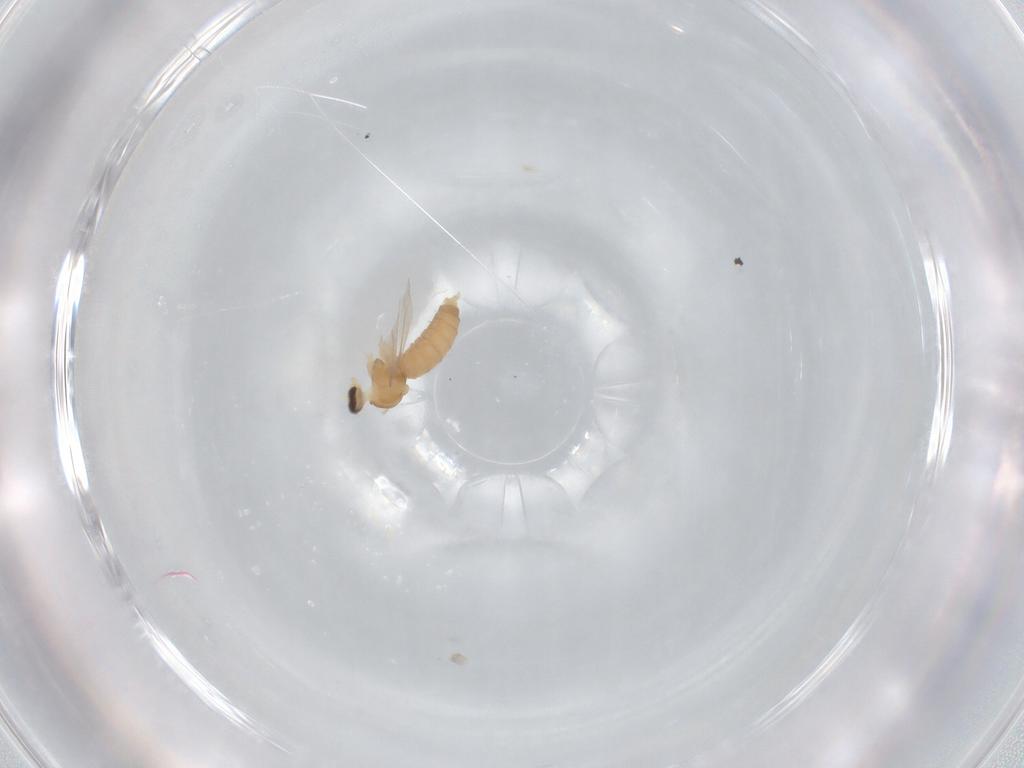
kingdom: Animalia
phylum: Arthropoda
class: Insecta
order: Diptera
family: Cecidomyiidae
